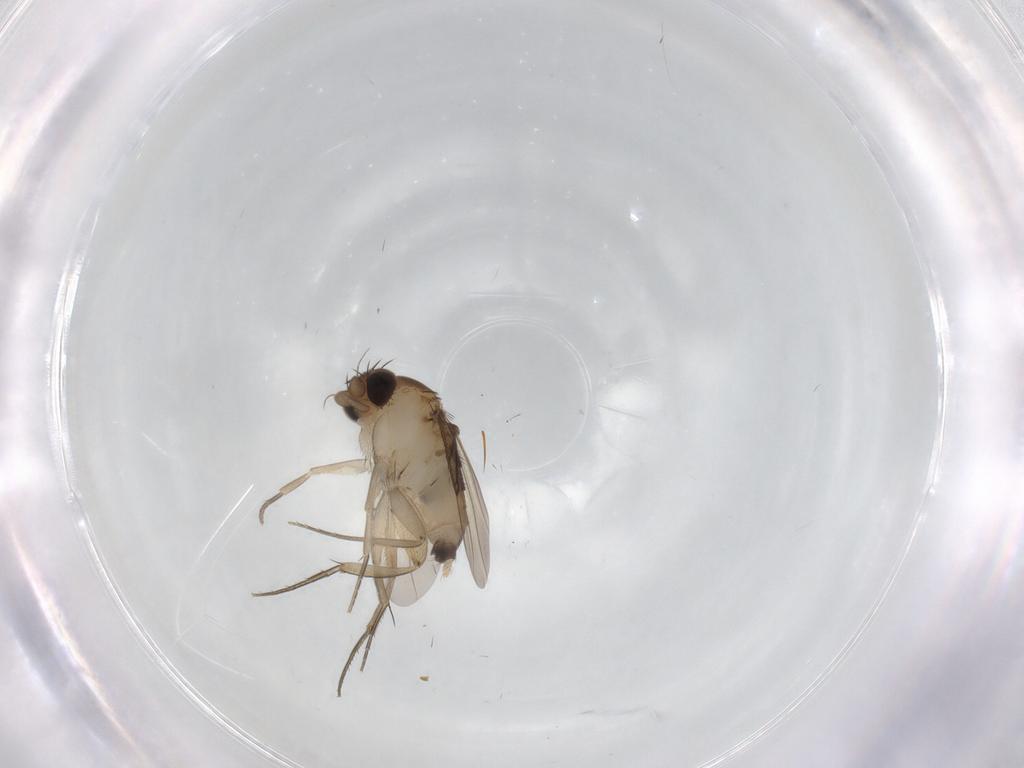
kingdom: Animalia
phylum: Arthropoda
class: Insecta
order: Diptera
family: Phoridae
